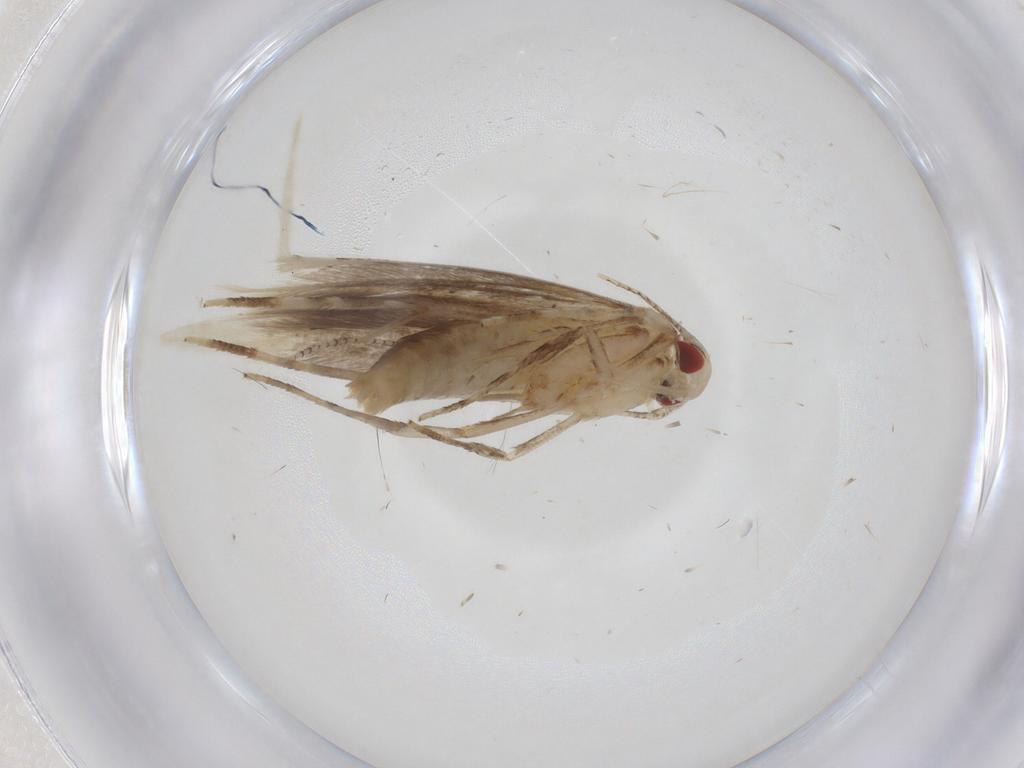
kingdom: Animalia
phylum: Arthropoda
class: Insecta
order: Lepidoptera
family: Cosmopterigidae
